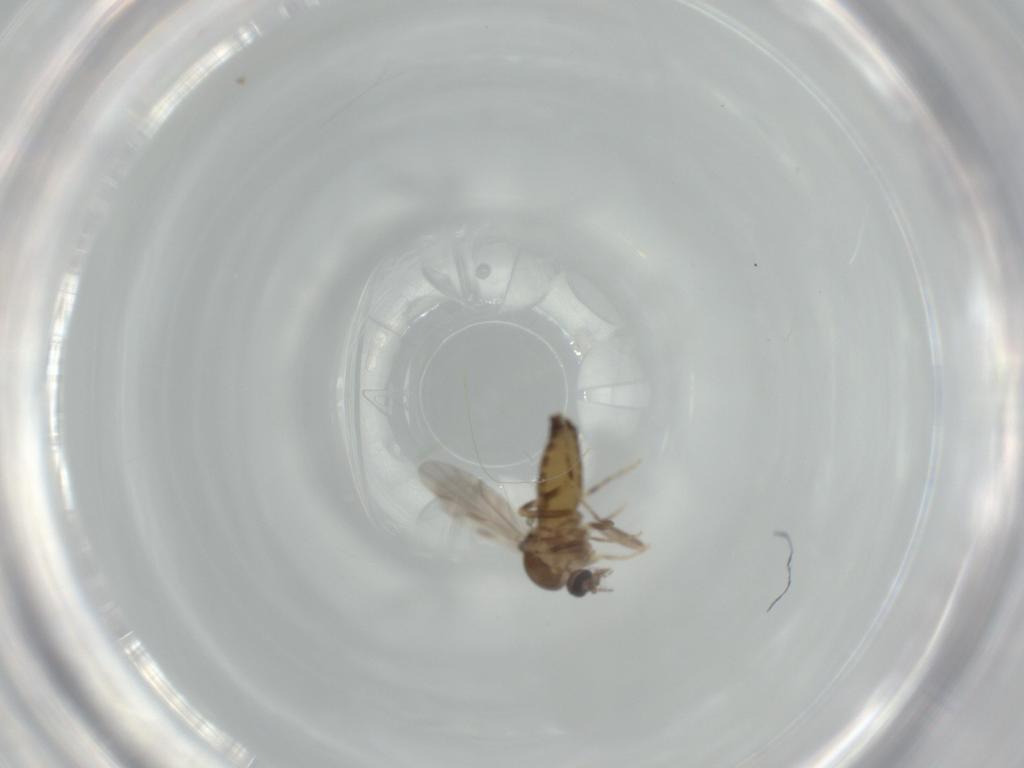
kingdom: Animalia
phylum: Arthropoda
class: Insecta
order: Diptera
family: Ceratopogonidae
